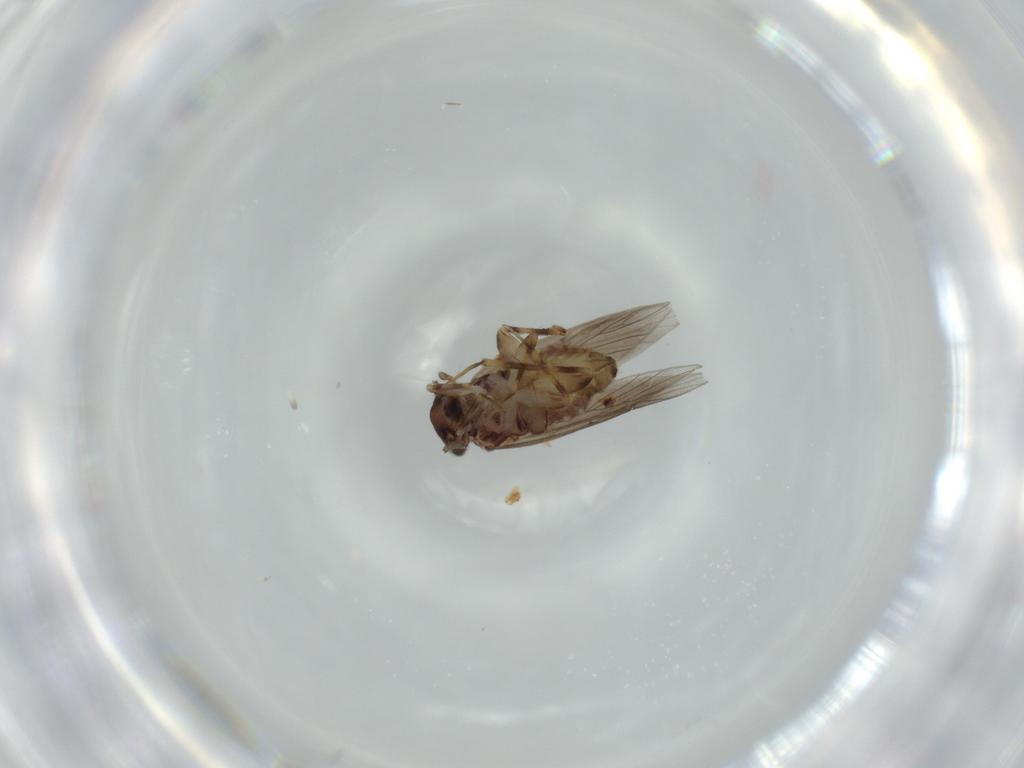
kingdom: Animalia
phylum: Arthropoda
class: Insecta
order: Psocodea
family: Lepidopsocidae
